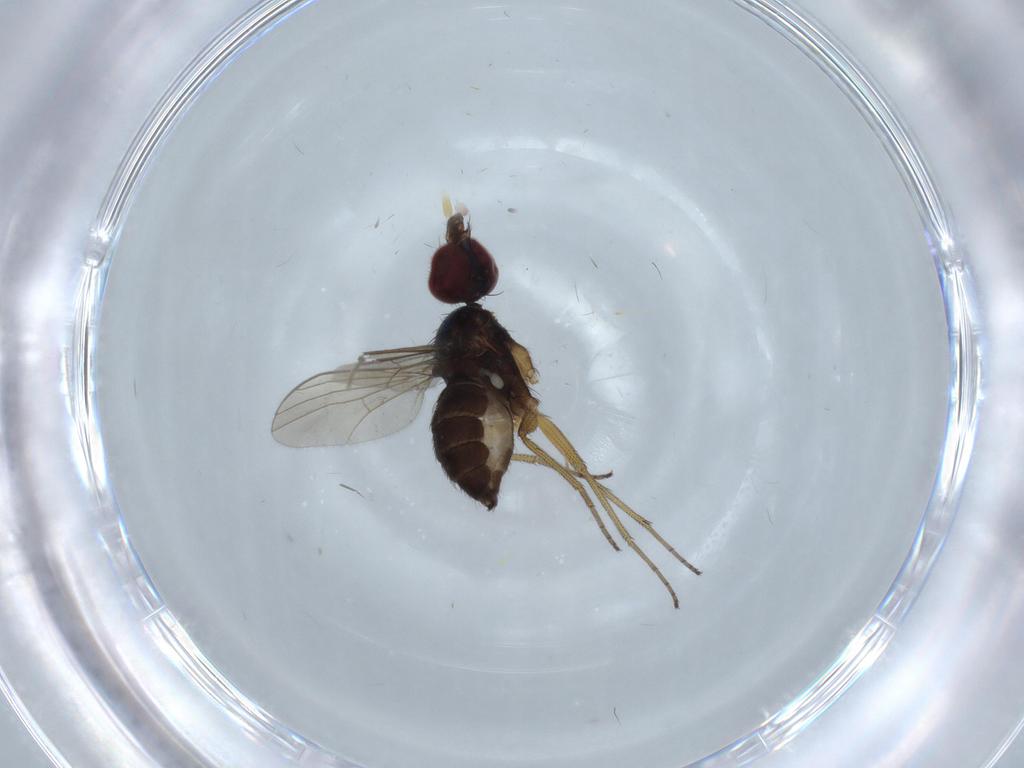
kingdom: Animalia
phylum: Arthropoda
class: Insecta
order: Diptera
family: Dolichopodidae
